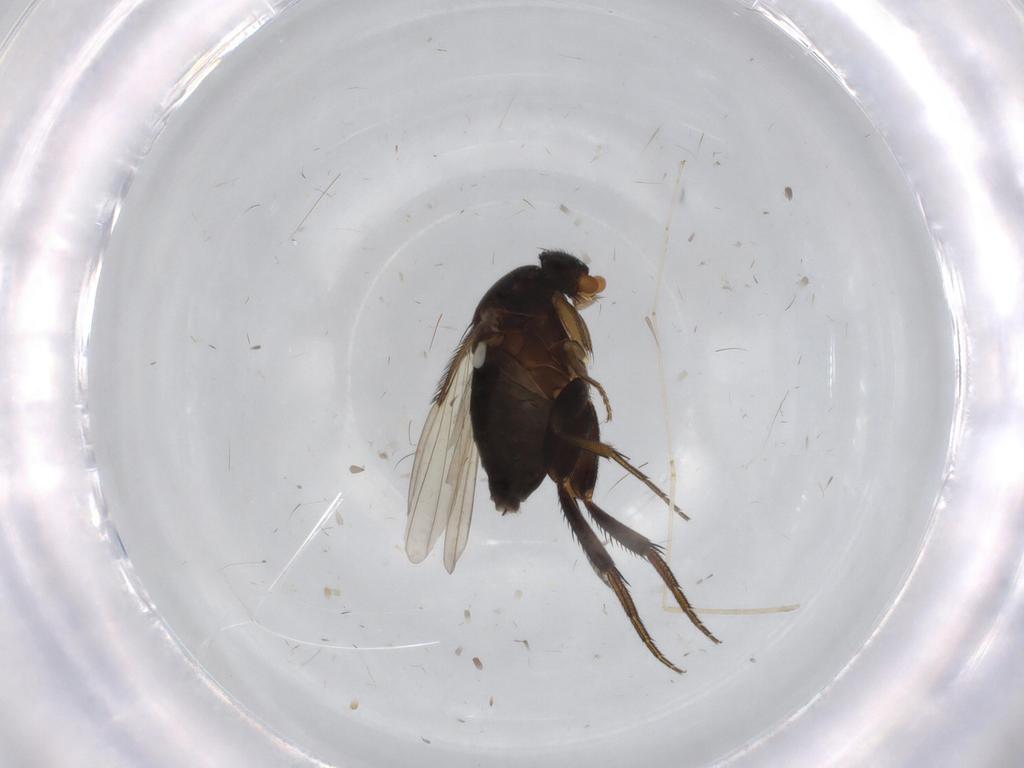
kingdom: Animalia
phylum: Arthropoda
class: Insecta
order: Diptera
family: Phoridae
